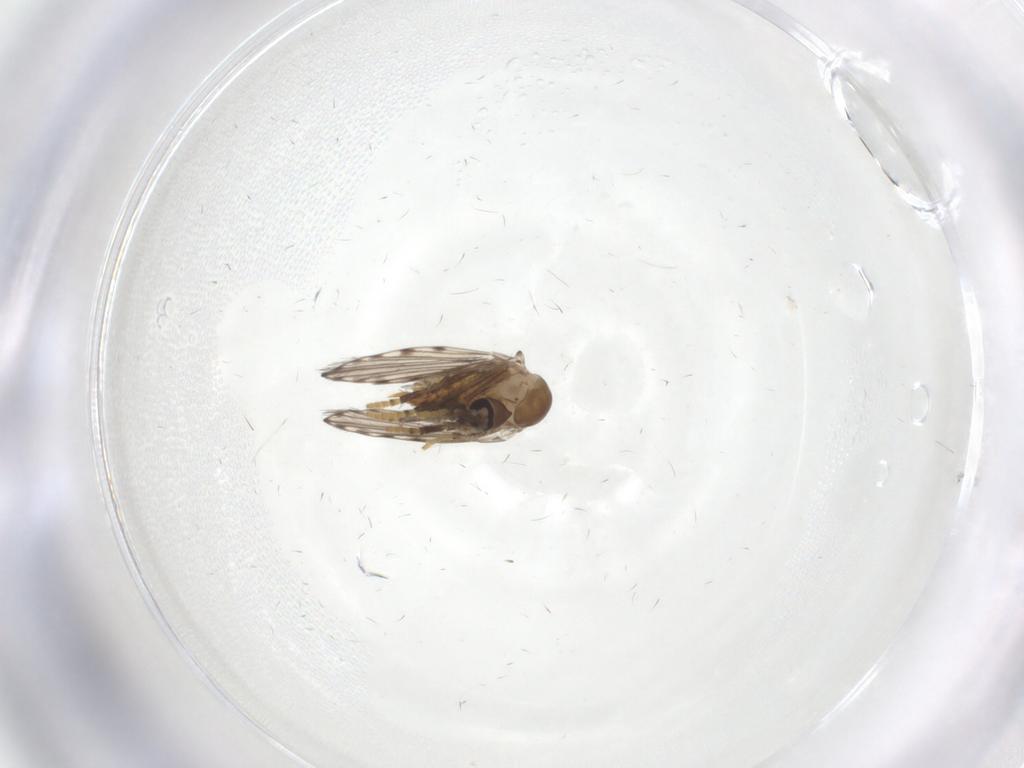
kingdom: Animalia
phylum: Arthropoda
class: Insecta
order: Diptera
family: Psychodidae
